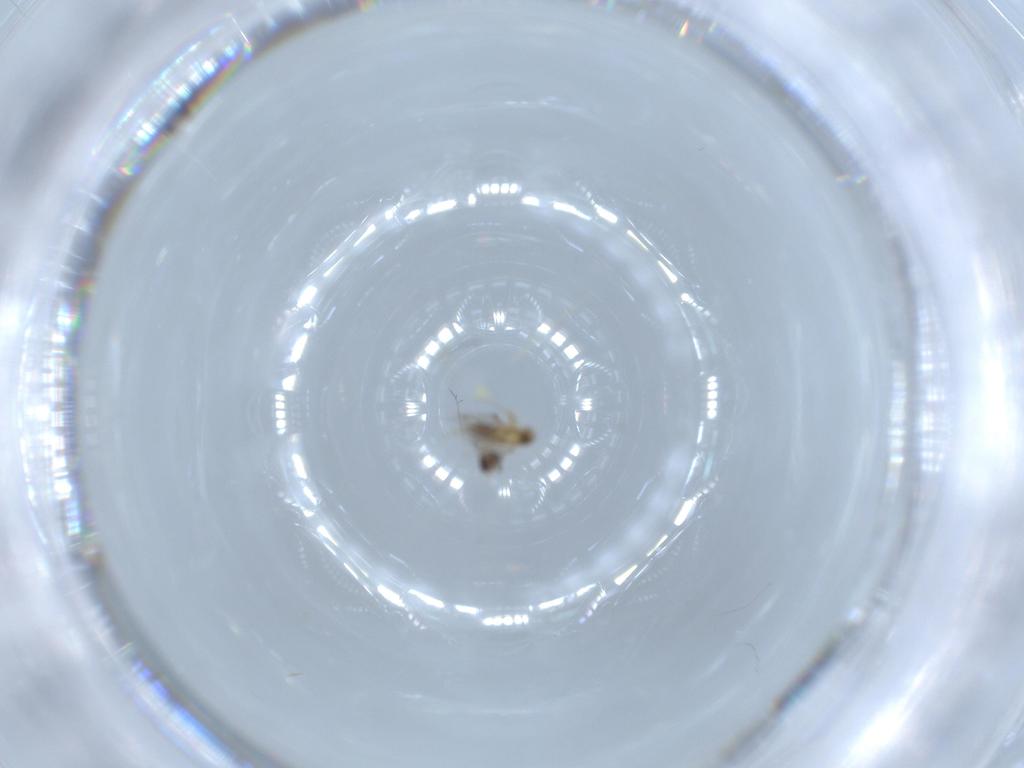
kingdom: Animalia
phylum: Arthropoda
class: Insecta
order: Hymenoptera
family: Mymaridae
